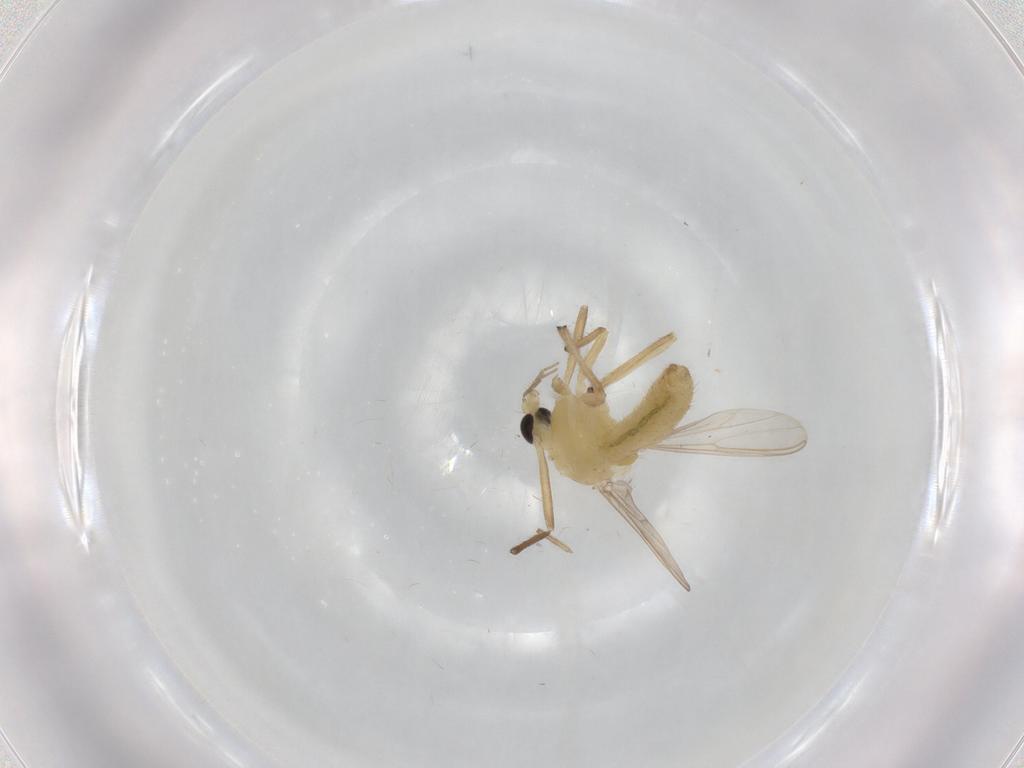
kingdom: Animalia
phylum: Arthropoda
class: Insecta
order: Diptera
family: Chironomidae
